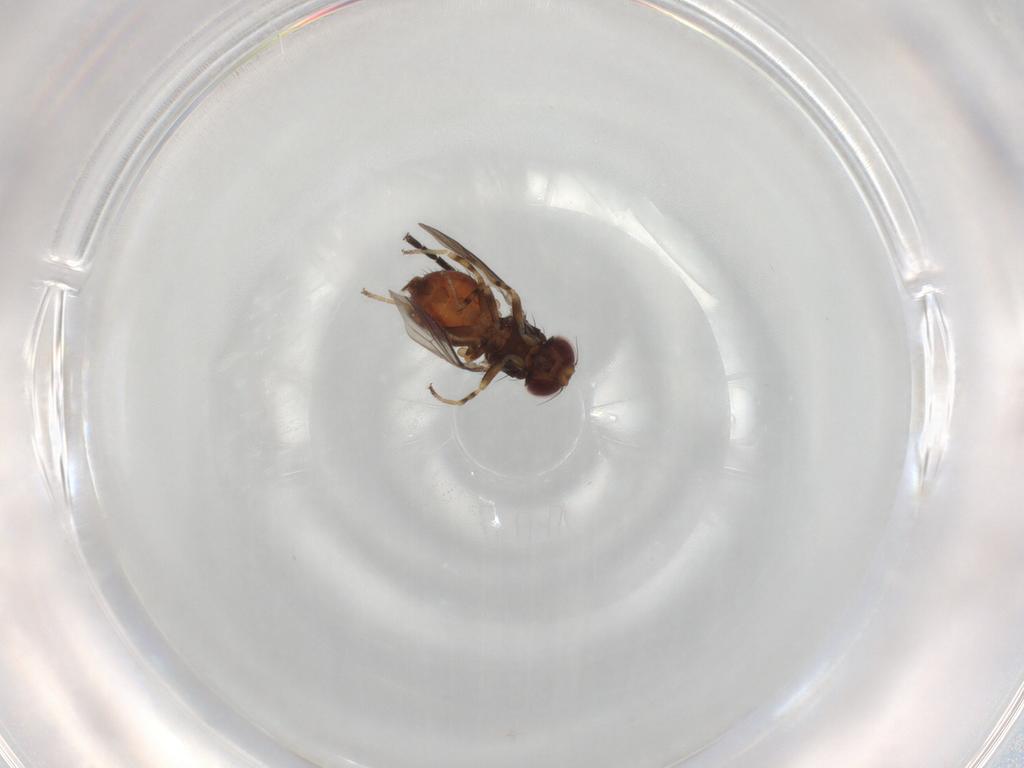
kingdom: Animalia
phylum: Arthropoda
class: Insecta
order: Diptera
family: Chloropidae
